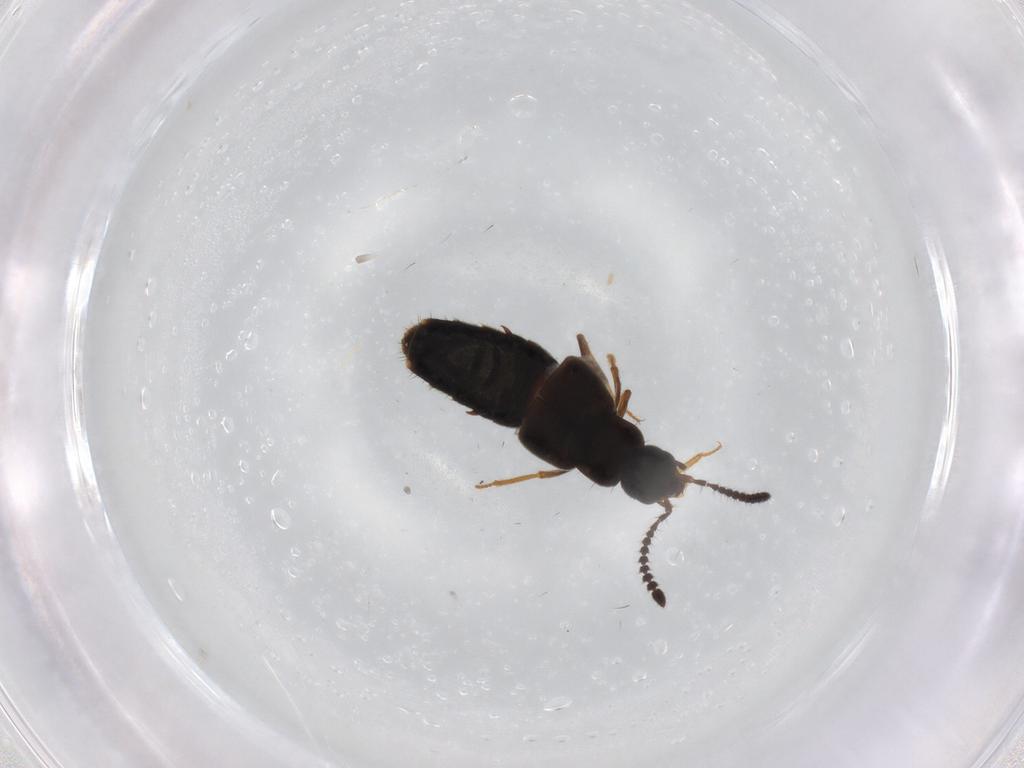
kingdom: Animalia
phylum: Arthropoda
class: Insecta
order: Coleoptera
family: Staphylinidae
